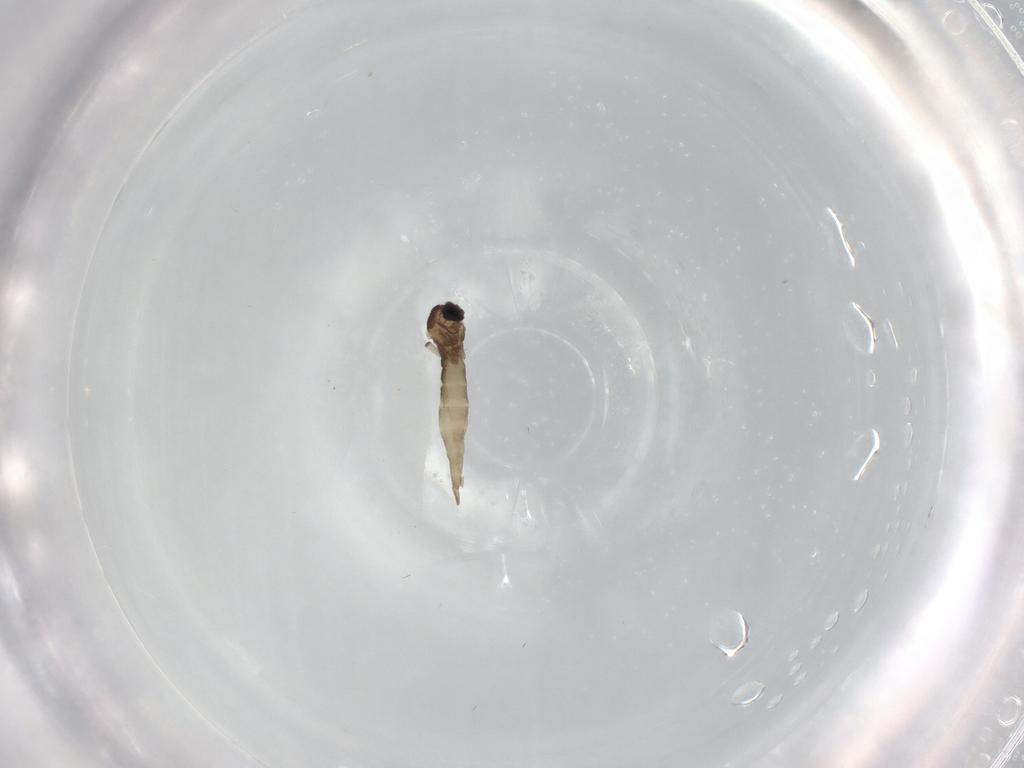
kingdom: Animalia
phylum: Arthropoda
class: Insecta
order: Diptera
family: Cecidomyiidae
